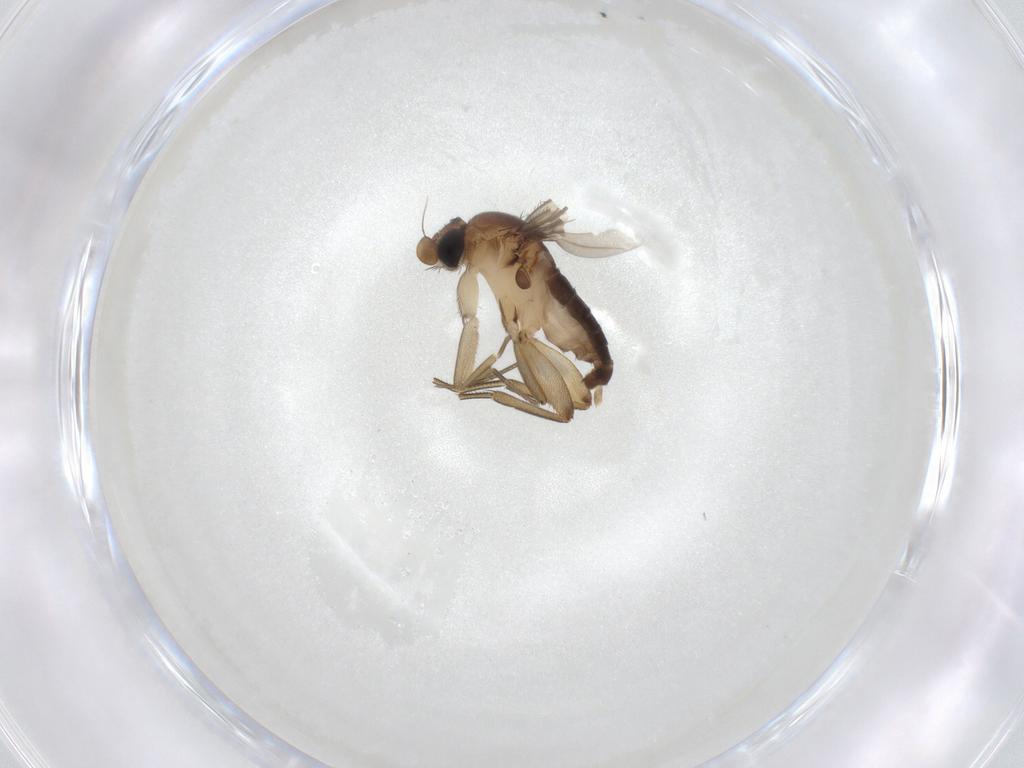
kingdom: Animalia
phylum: Arthropoda
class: Insecta
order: Diptera
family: Phoridae
